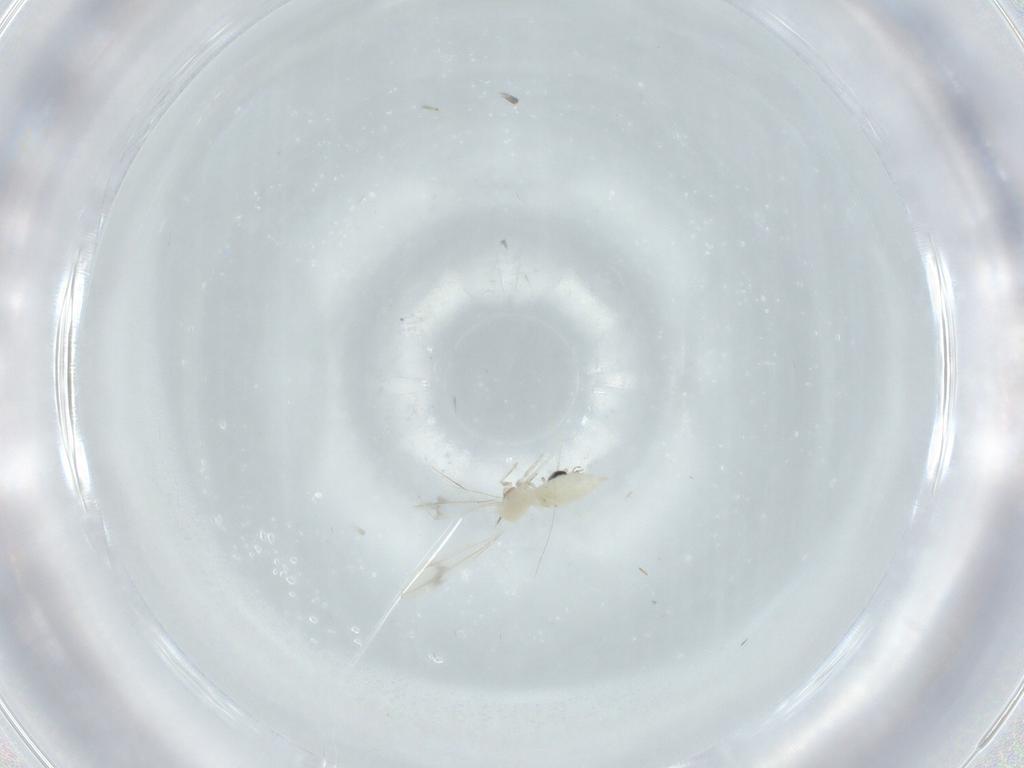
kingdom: Animalia
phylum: Arthropoda
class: Insecta
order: Diptera
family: Cecidomyiidae
